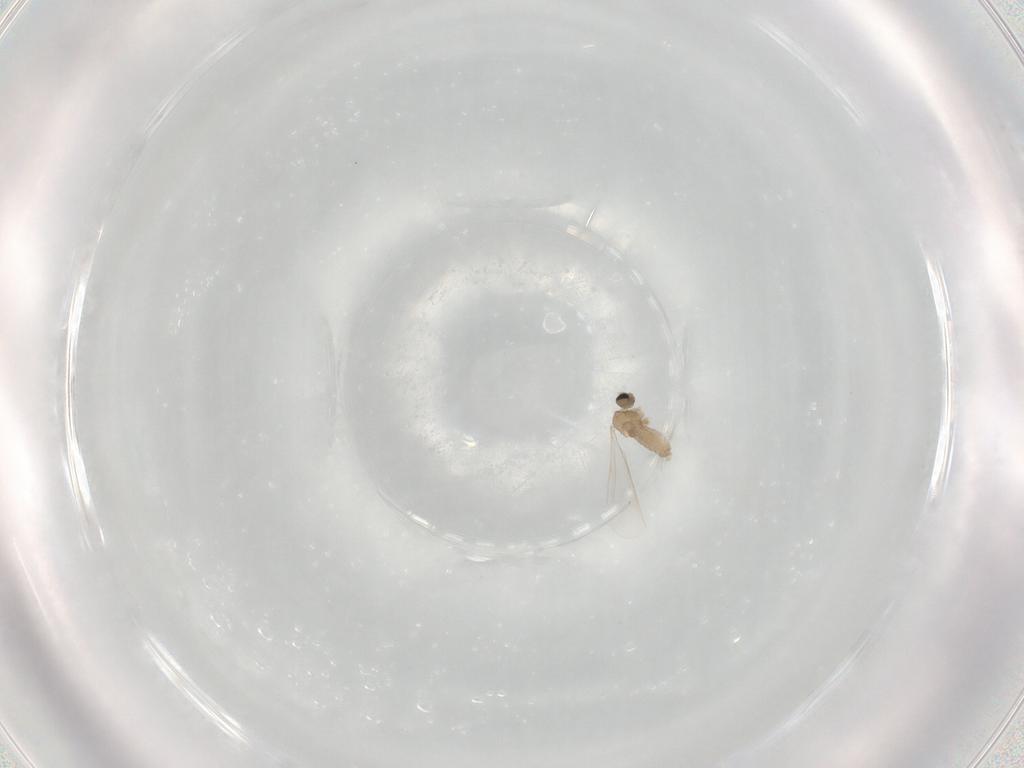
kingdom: Animalia
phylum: Arthropoda
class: Insecta
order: Diptera
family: Cecidomyiidae
